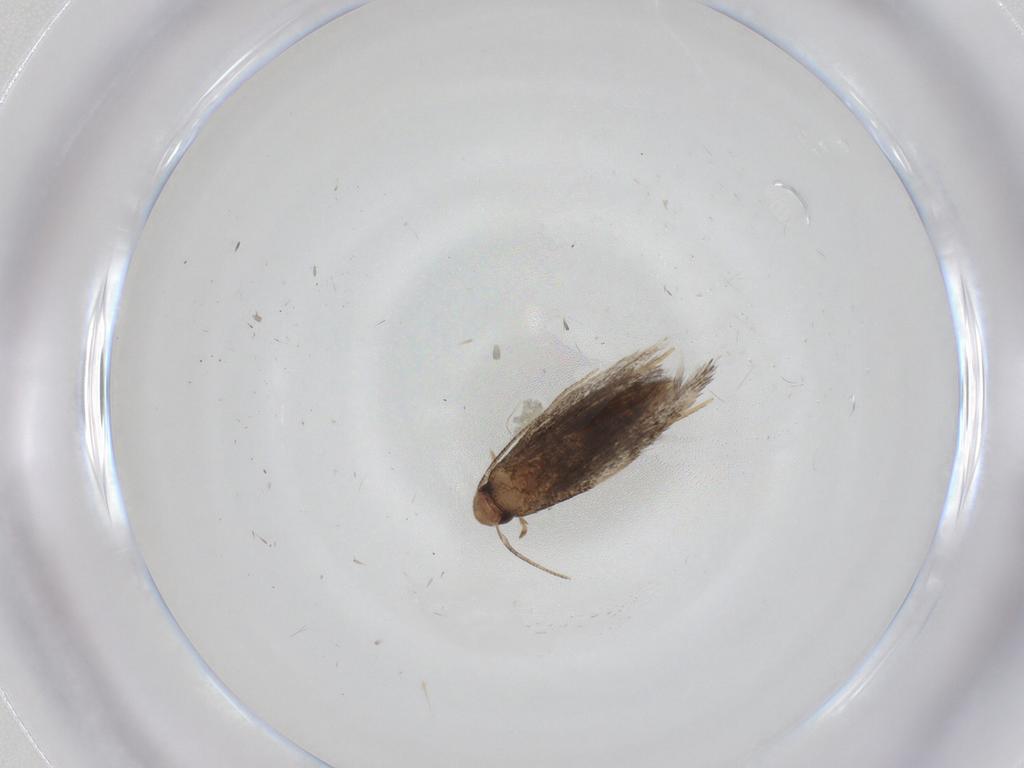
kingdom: Animalia
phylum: Arthropoda
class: Insecta
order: Lepidoptera
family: Gelechiidae
